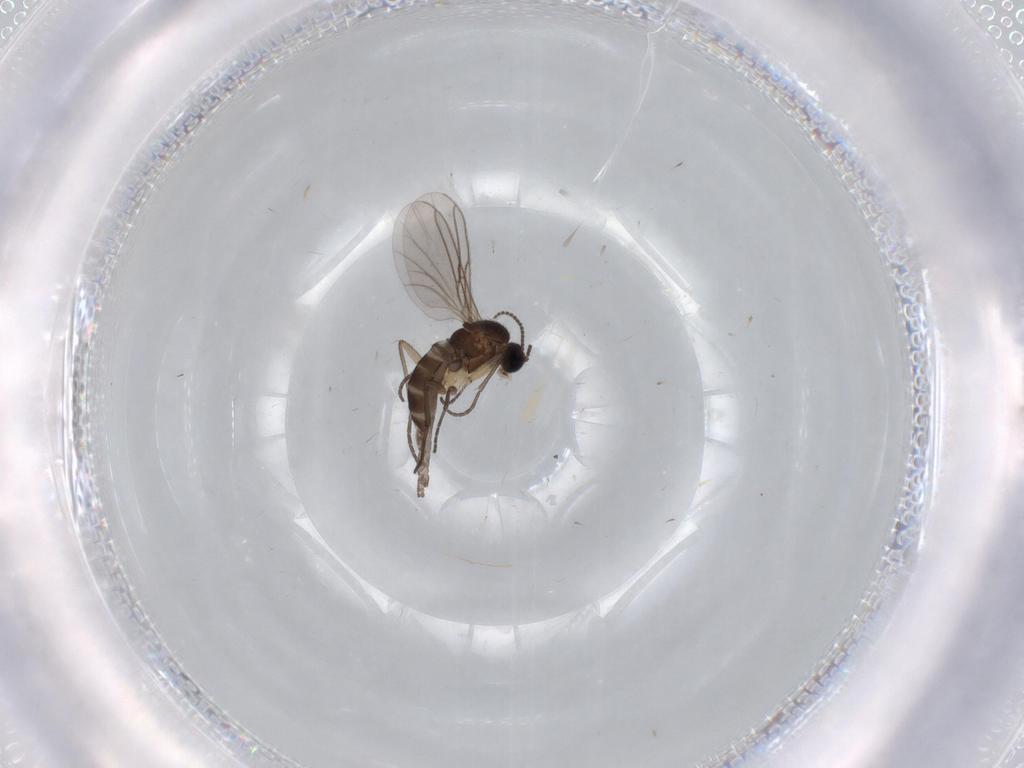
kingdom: Animalia
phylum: Arthropoda
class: Insecta
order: Diptera
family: Sciaridae
